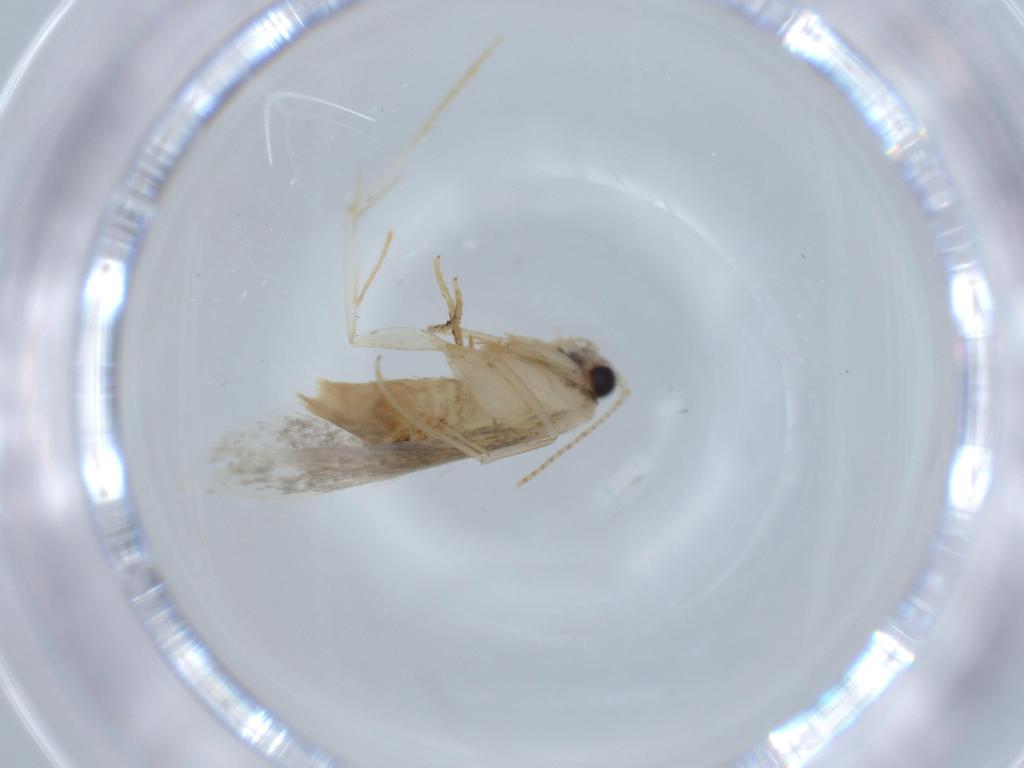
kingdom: Animalia
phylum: Arthropoda
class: Insecta
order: Lepidoptera
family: Tineidae
